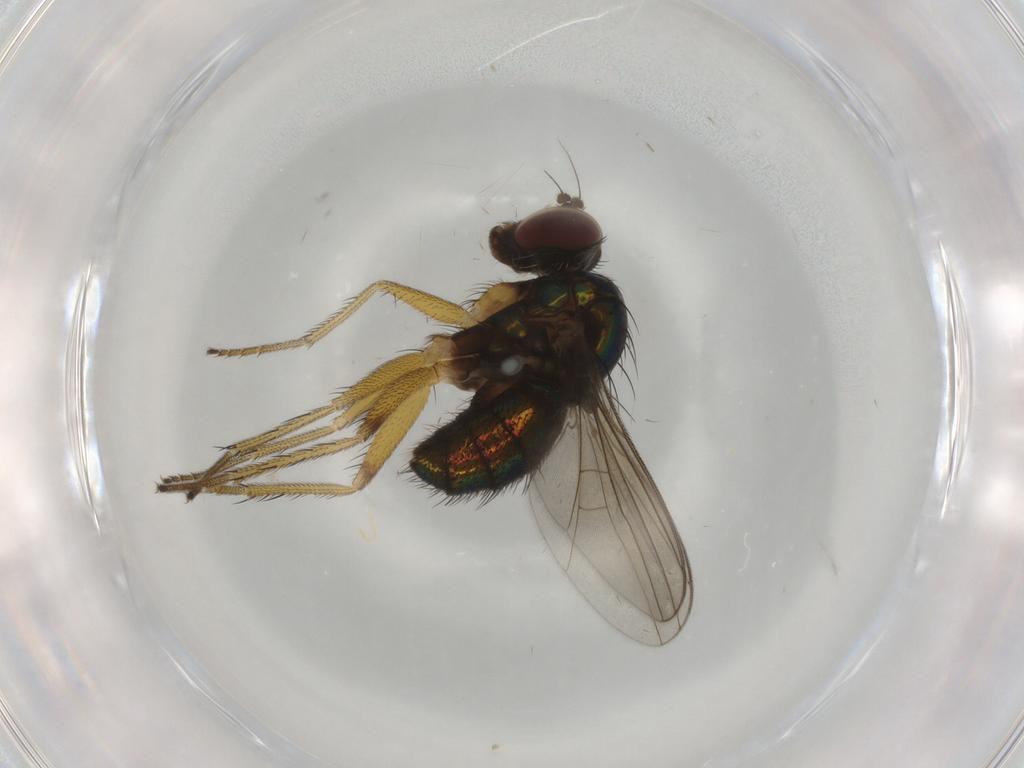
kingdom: Animalia
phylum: Arthropoda
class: Insecta
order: Diptera
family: Dolichopodidae
